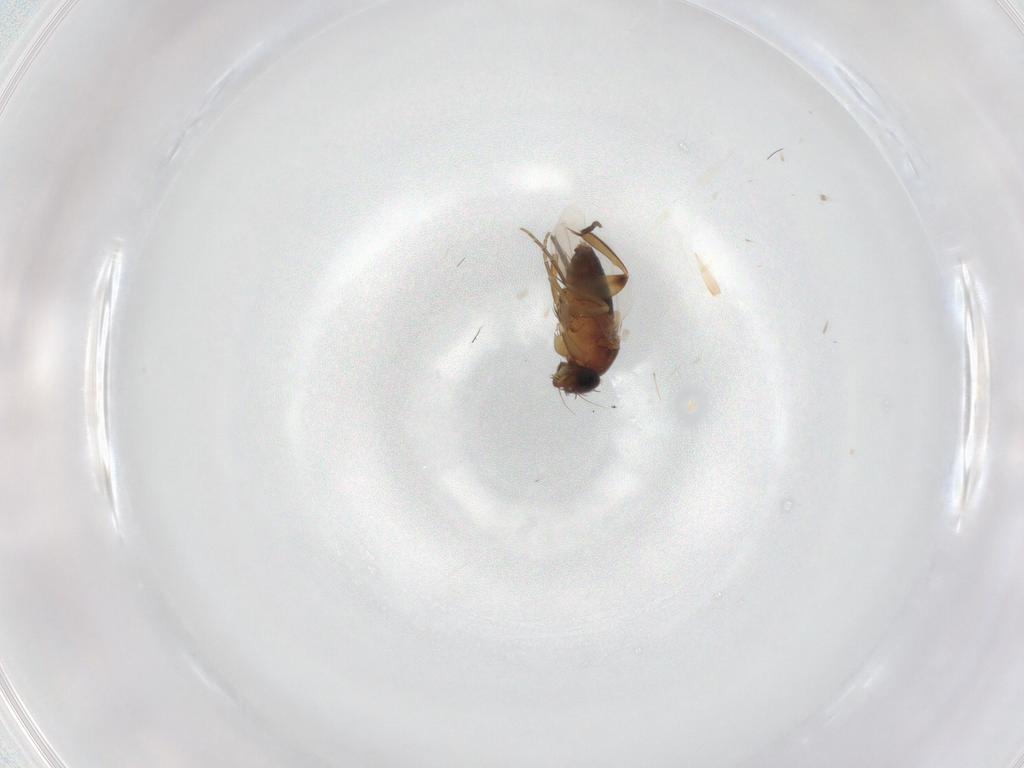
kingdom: Animalia
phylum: Arthropoda
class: Insecta
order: Diptera
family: Phoridae
